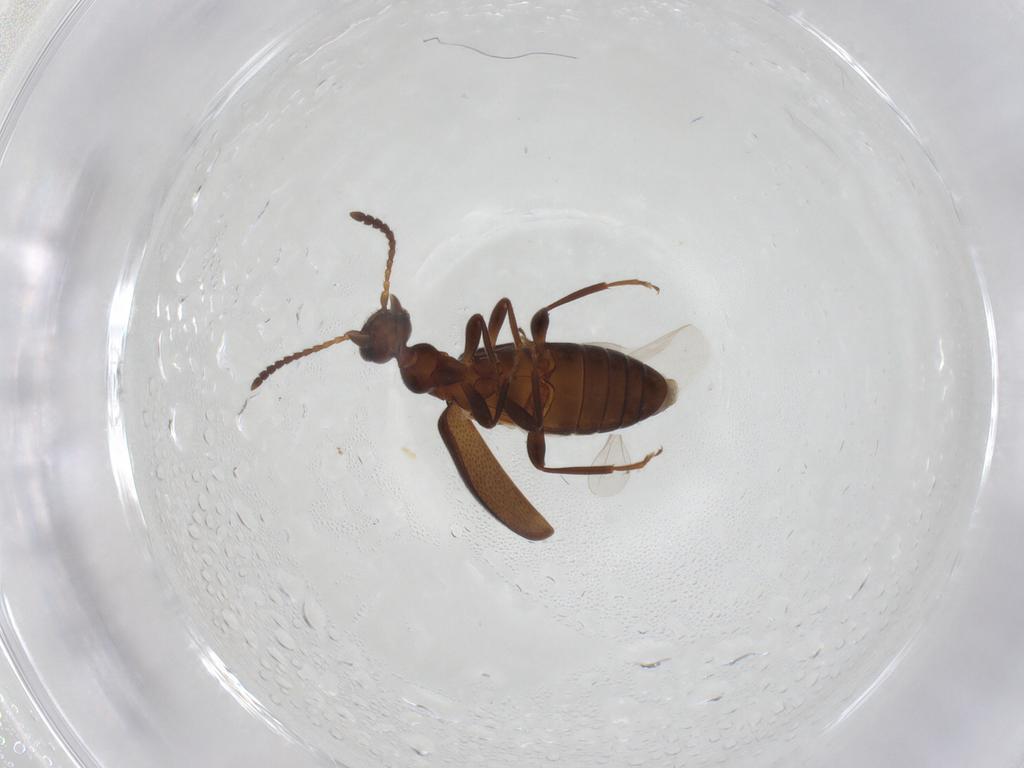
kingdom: Animalia
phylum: Arthropoda
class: Insecta
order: Coleoptera
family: Anthicidae
